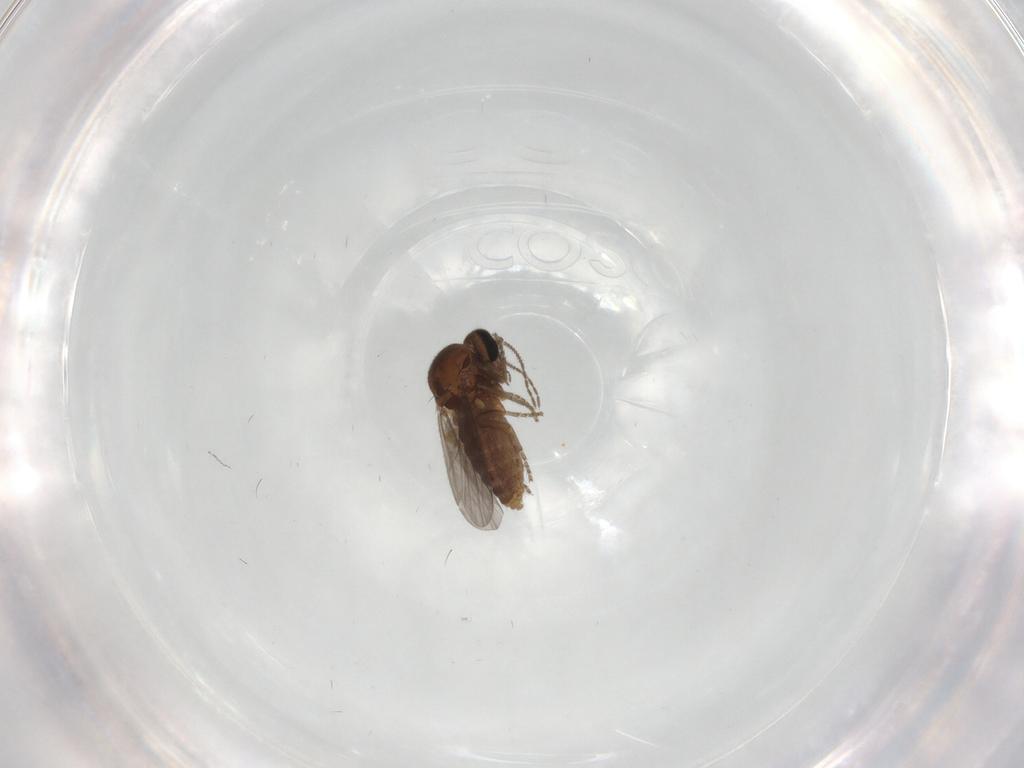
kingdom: Animalia
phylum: Arthropoda
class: Insecta
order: Diptera
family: Ceratopogonidae
